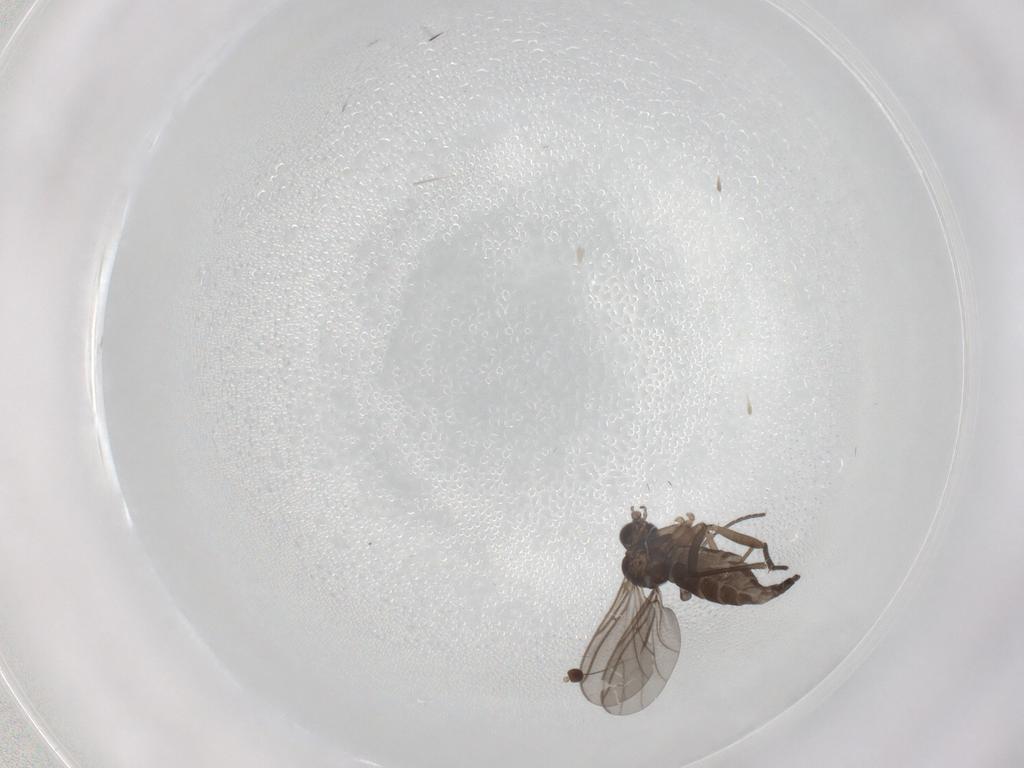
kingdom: Animalia
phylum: Arthropoda
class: Insecta
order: Diptera
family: Sciaridae
